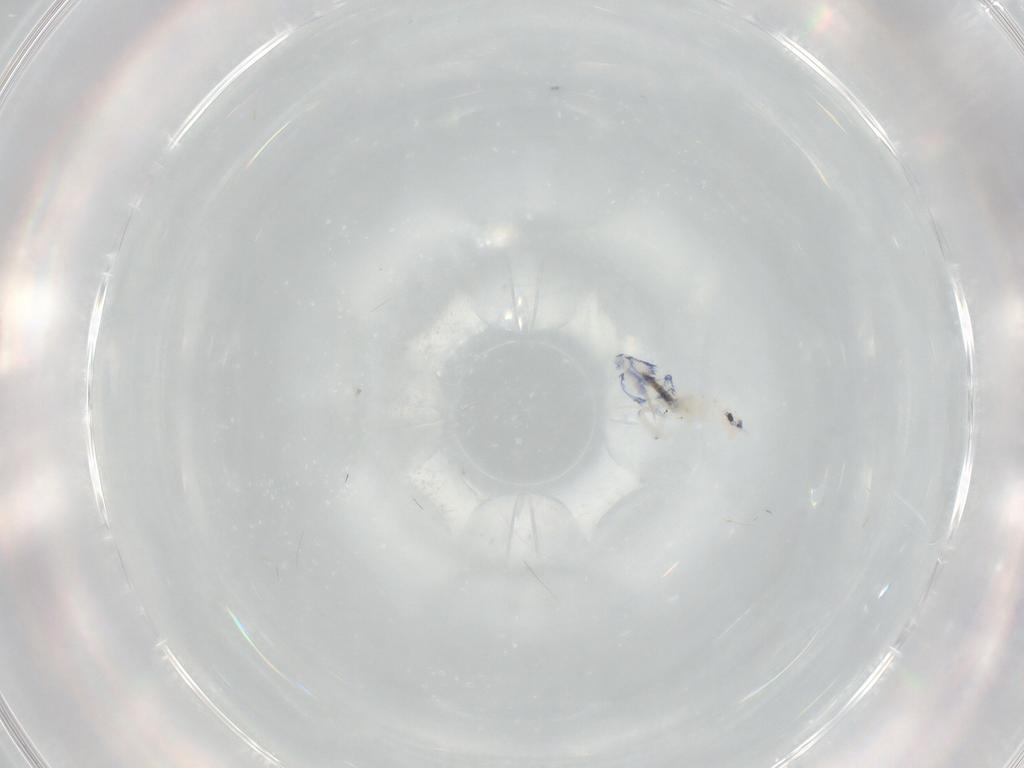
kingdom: Animalia
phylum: Arthropoda
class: Collembola
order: Entomobryomorpha
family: Entomobryidae
